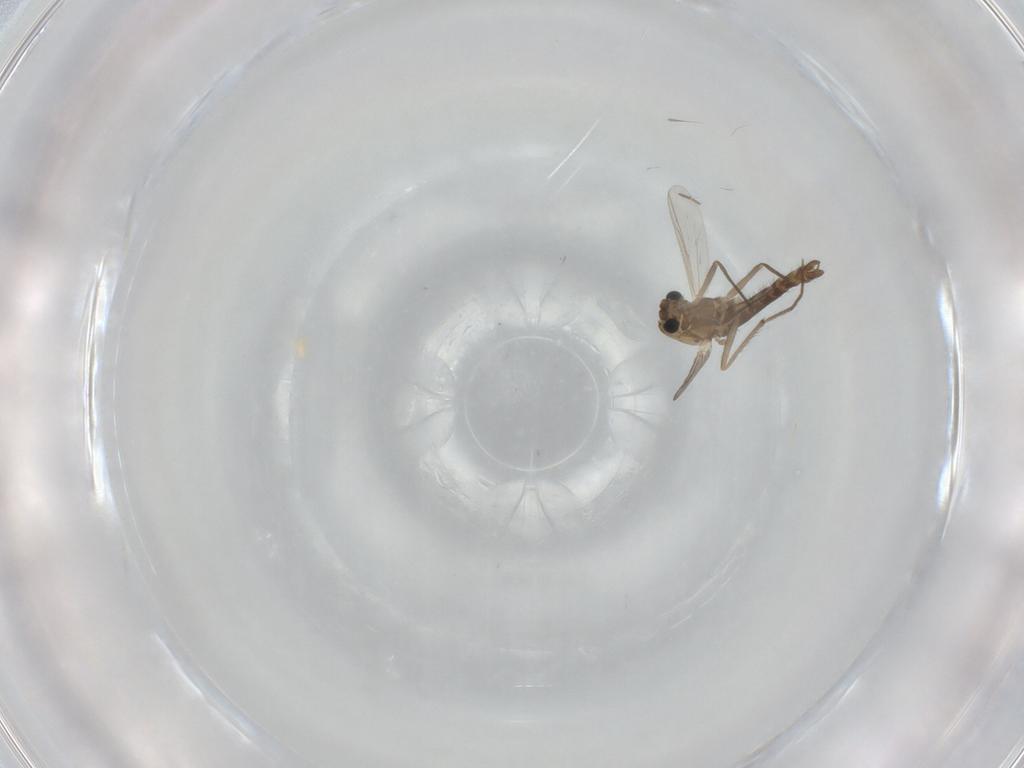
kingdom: Animalia
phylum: Arthropoda
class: Insecta
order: Diptera
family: Chironomidae
